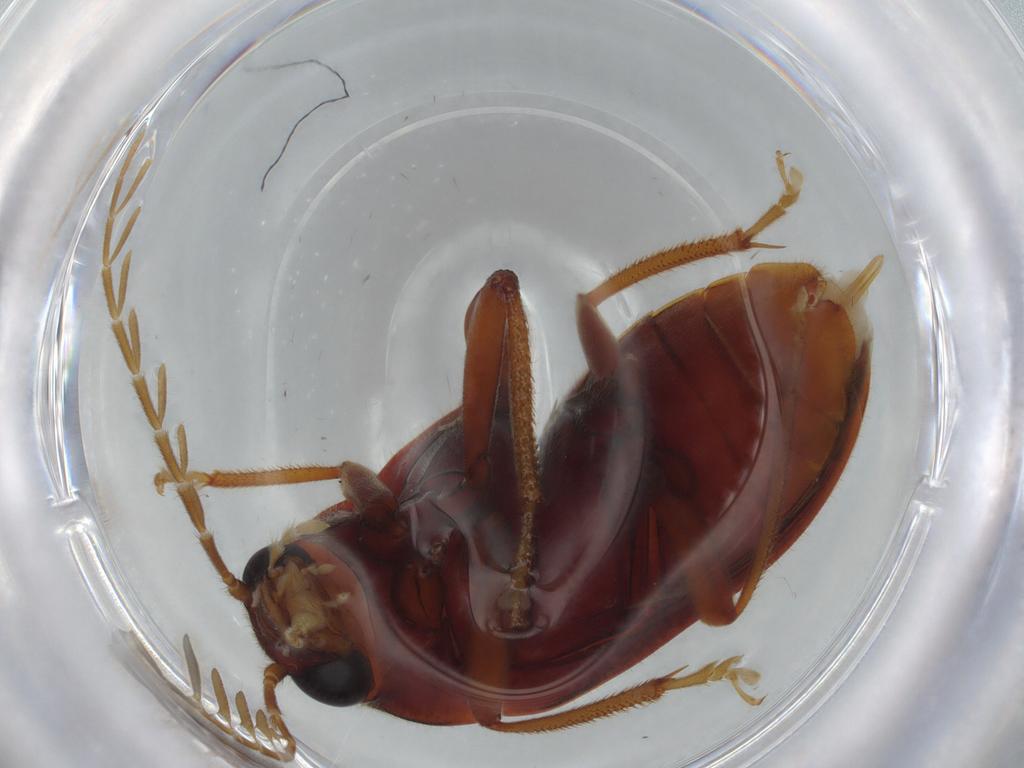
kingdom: Animalia
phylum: Arthropoda
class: Insecta
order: Coleoptera
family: Ptilodactylidae
